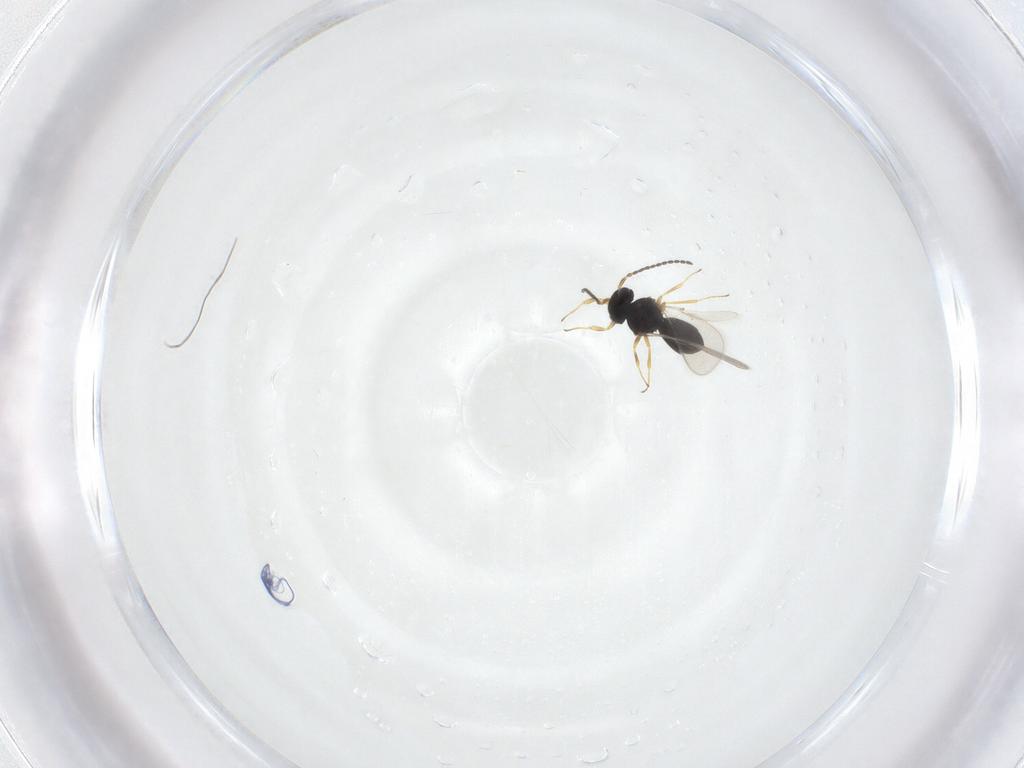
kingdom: Animalia
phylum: Arthropoda
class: Insecta
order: Hymenoptera
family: Scelionidae
